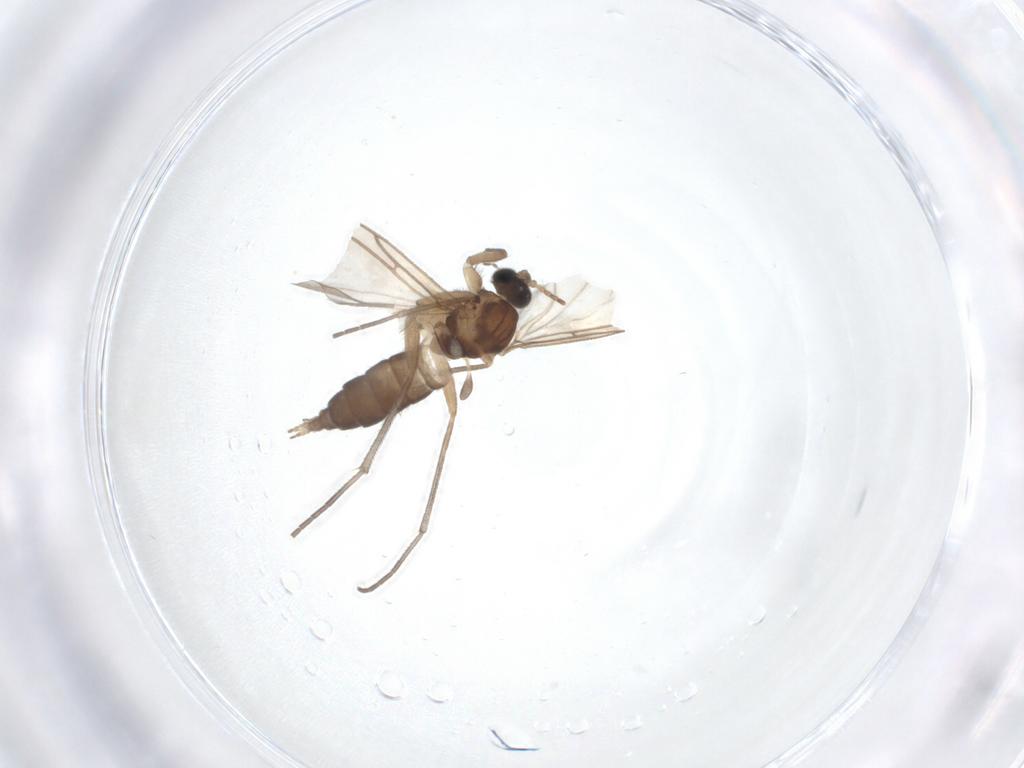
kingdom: Animalia
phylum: Arthropoda
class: Insecta
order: Diptera
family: Sciaridae
